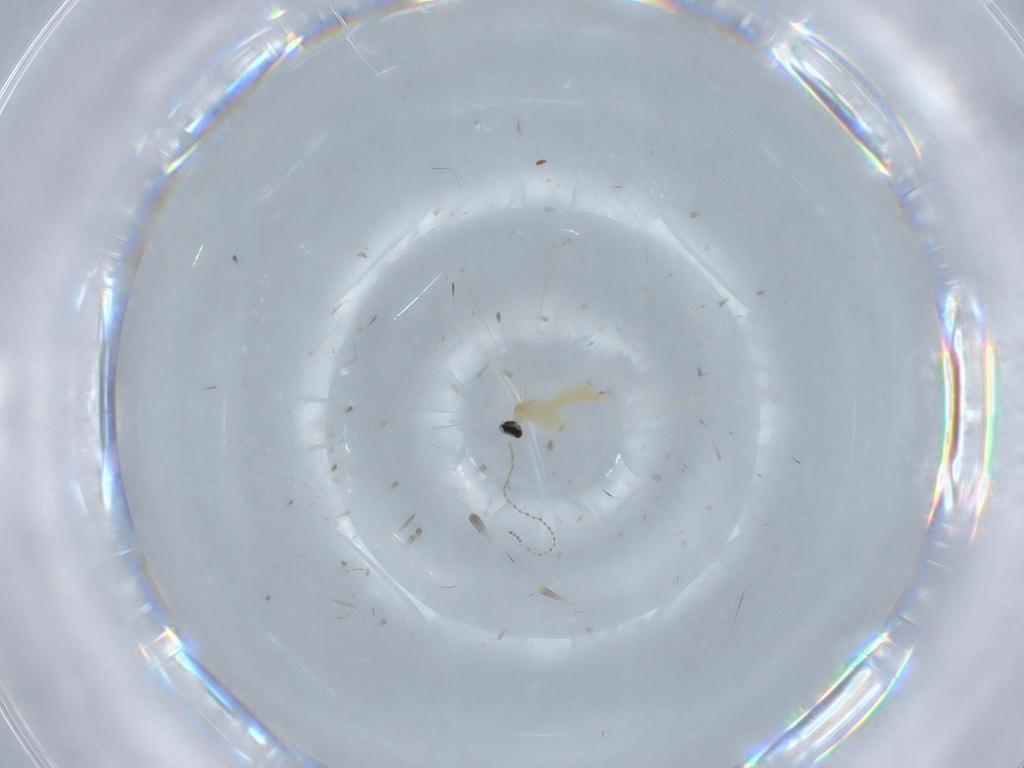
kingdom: Animalia
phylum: Arthropoda
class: Insecta
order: Diptera
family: Cecidomyiidae
